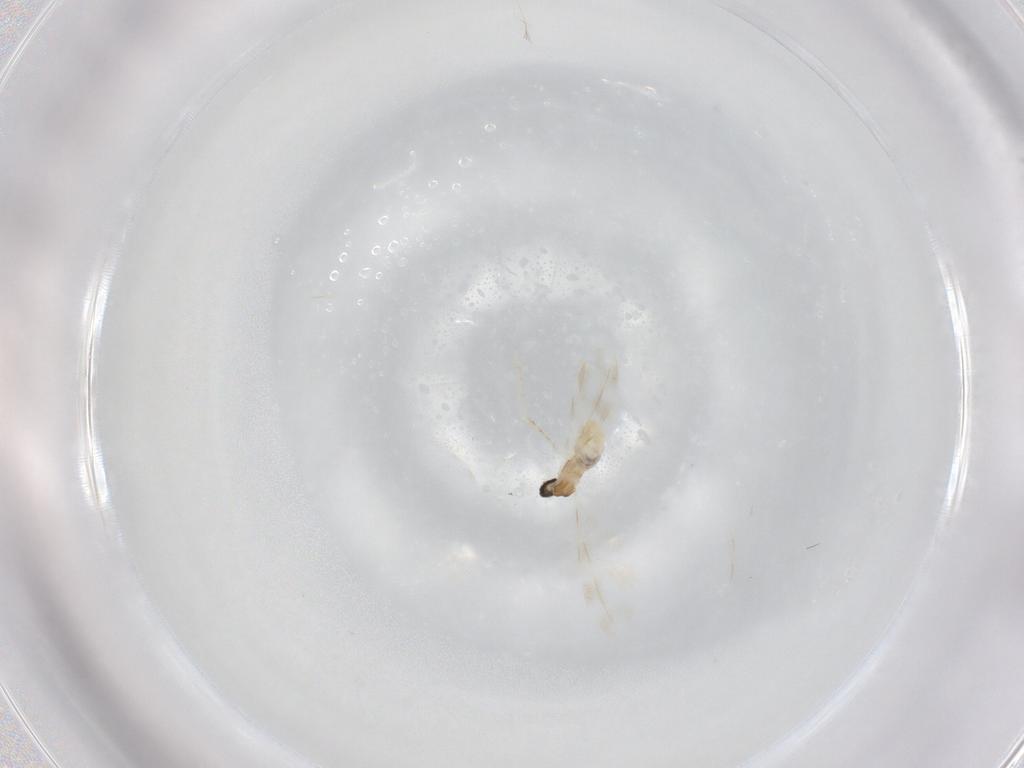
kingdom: Animalia
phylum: Arthropoda
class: Insecta
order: Diptera
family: Cecidomyiidae
